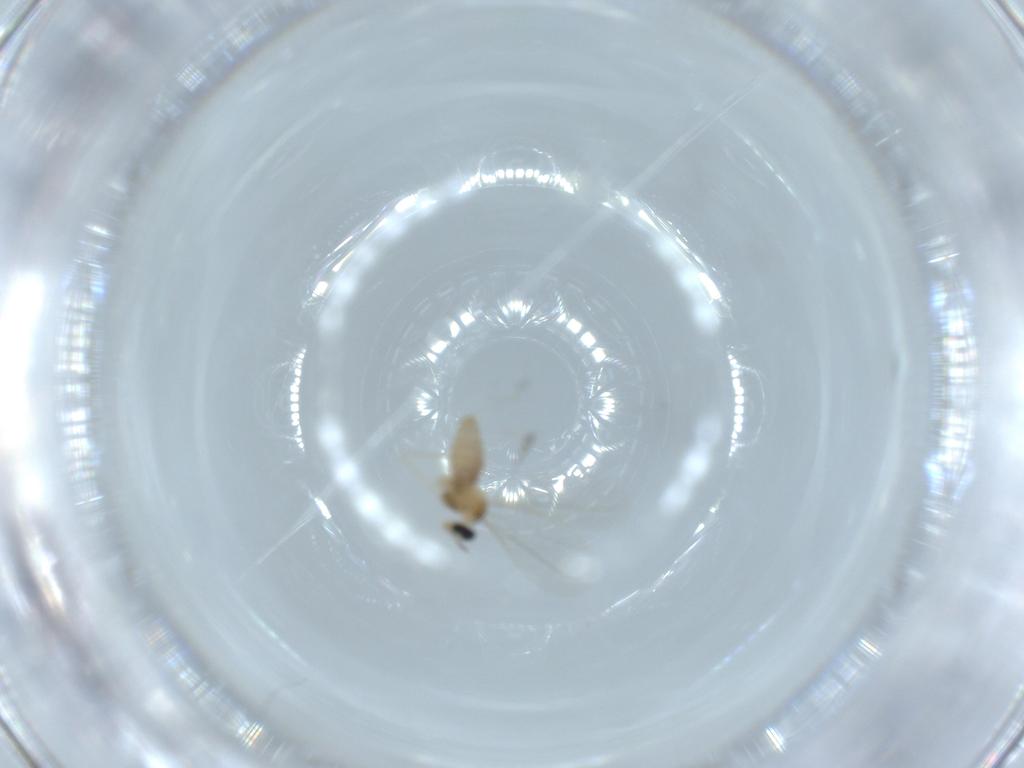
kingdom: Animalia
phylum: Arthropoda
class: Insecta
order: Diptera
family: Cecidomyiidae
